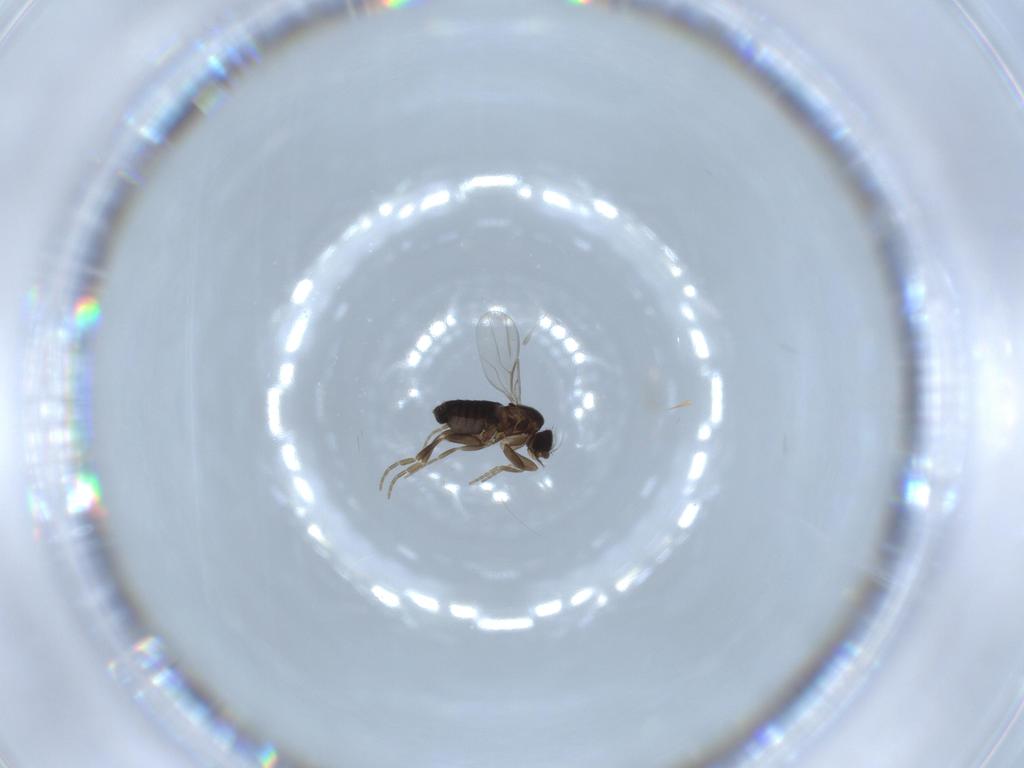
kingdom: Animalia
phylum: Arthropoda
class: Insecta
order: Diptera
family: Phoridae
